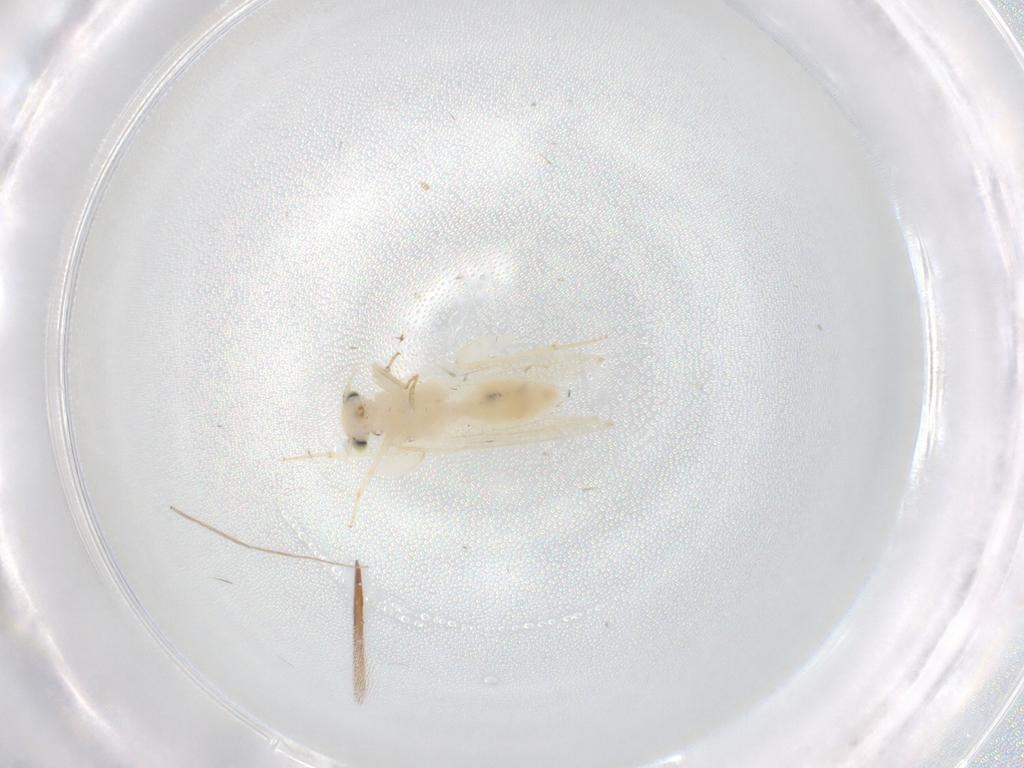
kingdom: Animalia
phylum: Arthropoda
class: Insecta
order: Psocodea
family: Lepidopsocidae
